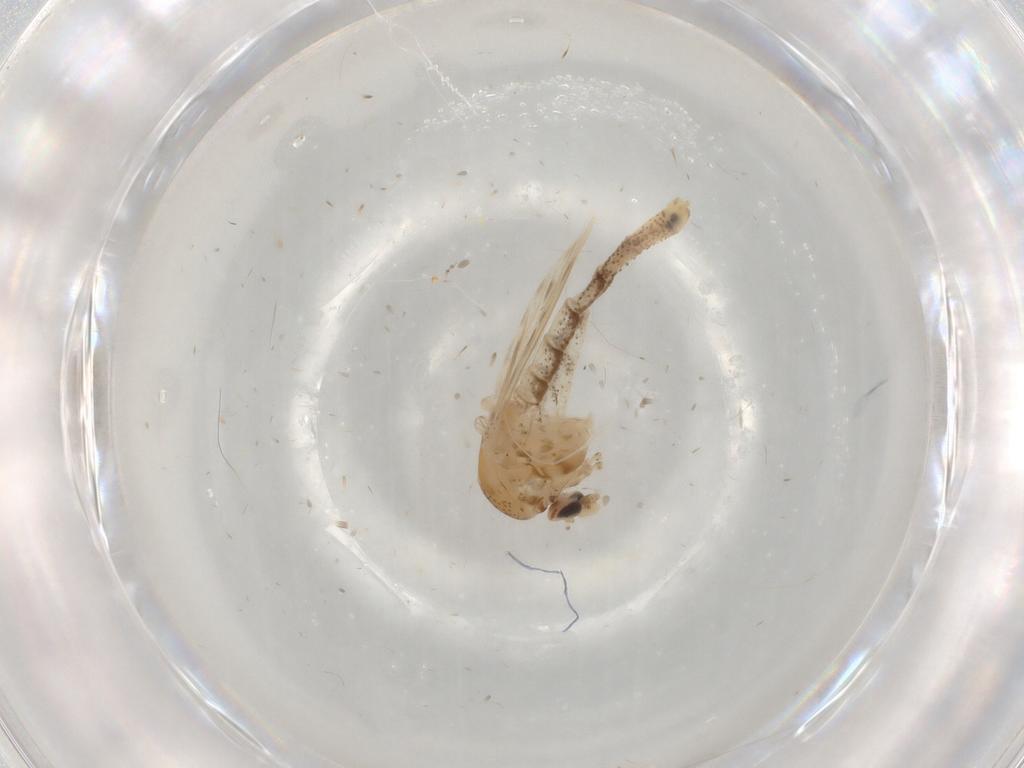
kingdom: Animalia
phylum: Arthropoda
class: Insecta
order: Diptera
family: Chaoboridae
